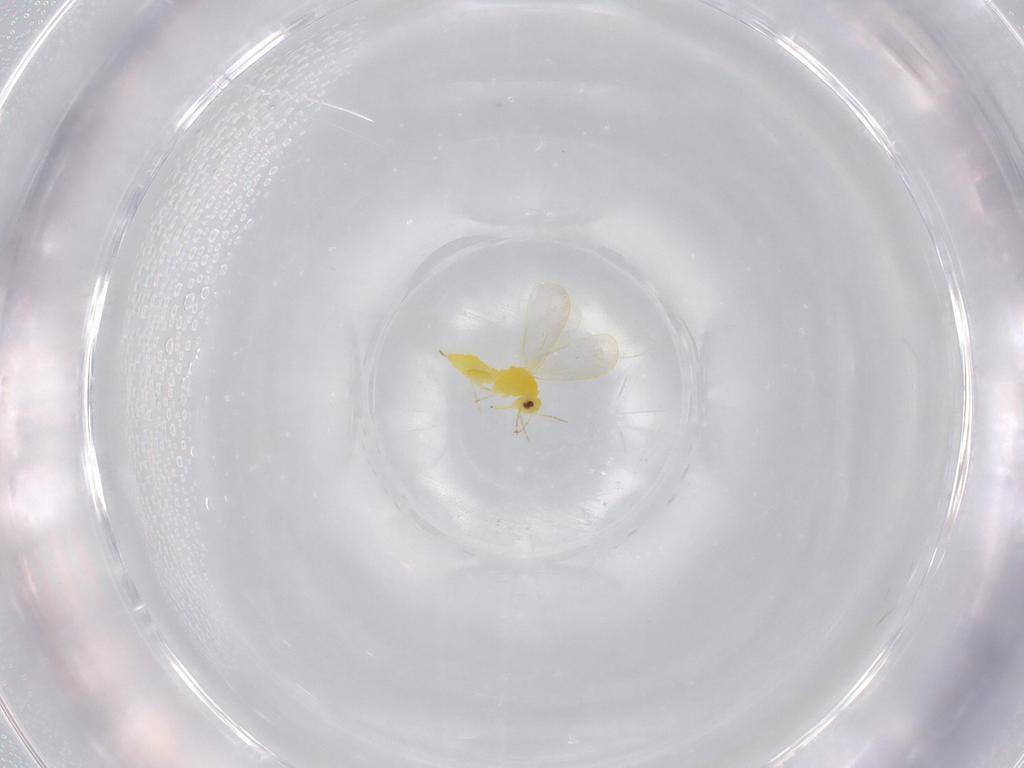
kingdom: Animalia
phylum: Arthropoda
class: Insecta
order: Hemiptera
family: Aleyrodidae
